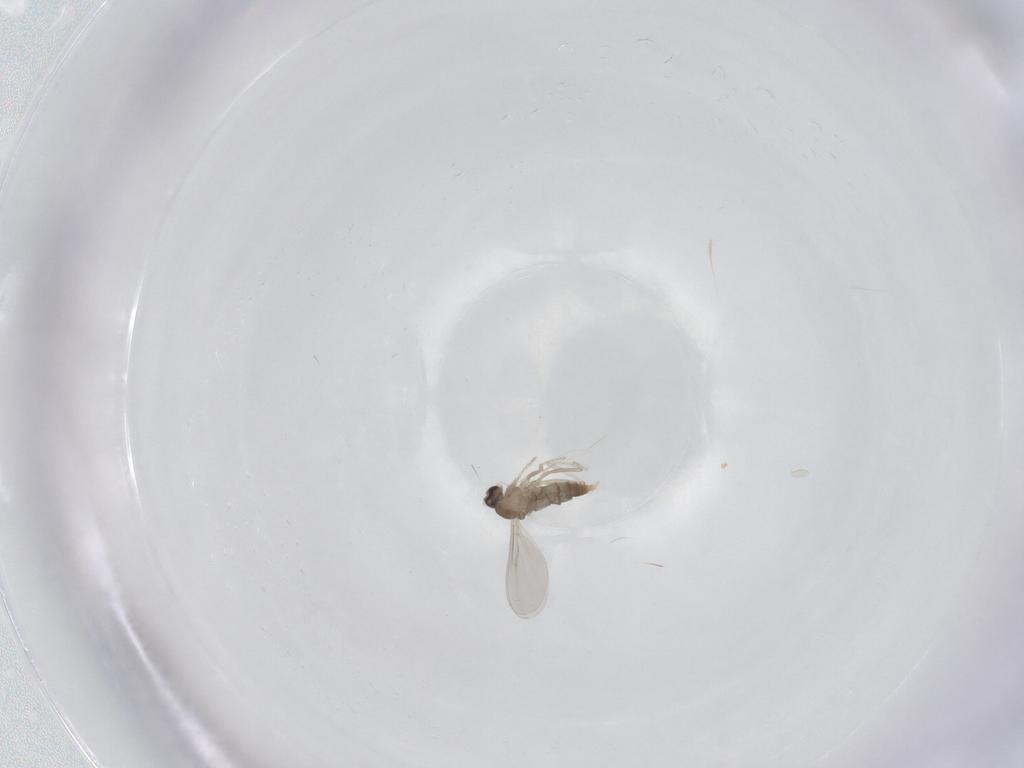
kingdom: Animalia
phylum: Arthropoda
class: Insecta
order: Diptera
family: Cecidomyiidae
